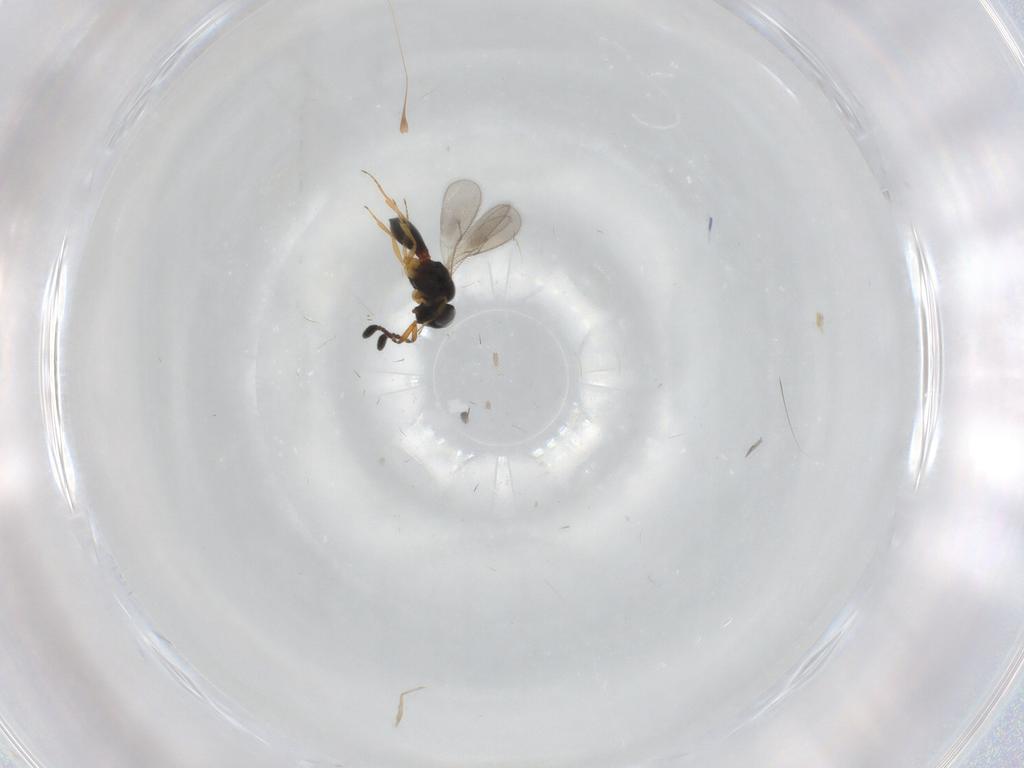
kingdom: Animalia
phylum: Arthropoda
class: Insecta
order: Hymenoptera
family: Scelionidae
